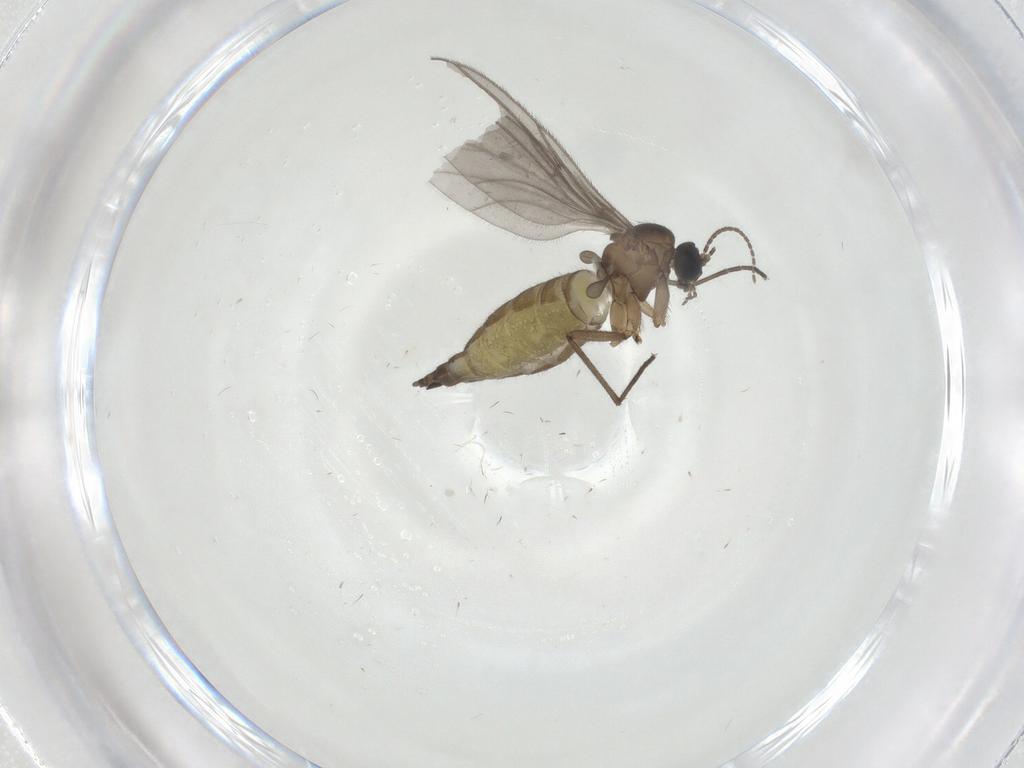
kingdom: Animalia
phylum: Arthropoda
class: Insecta
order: Diptera
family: Sciaridae
